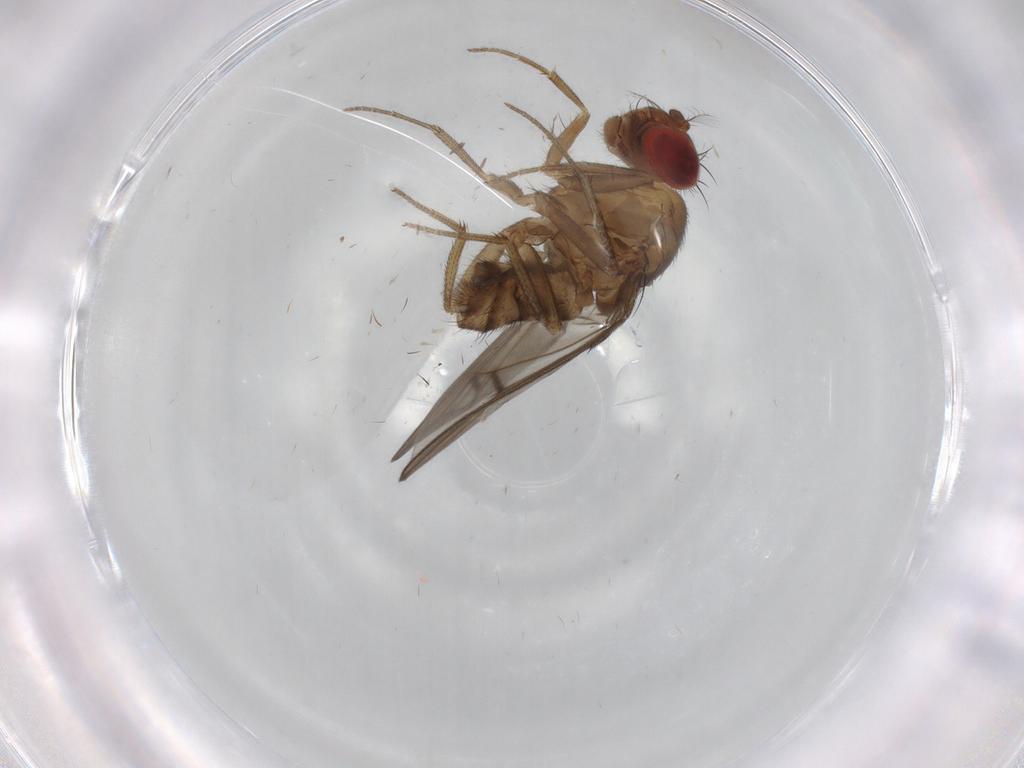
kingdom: Animalia
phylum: Arthropoda
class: Insecta
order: Diptera
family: Drosophilidae
